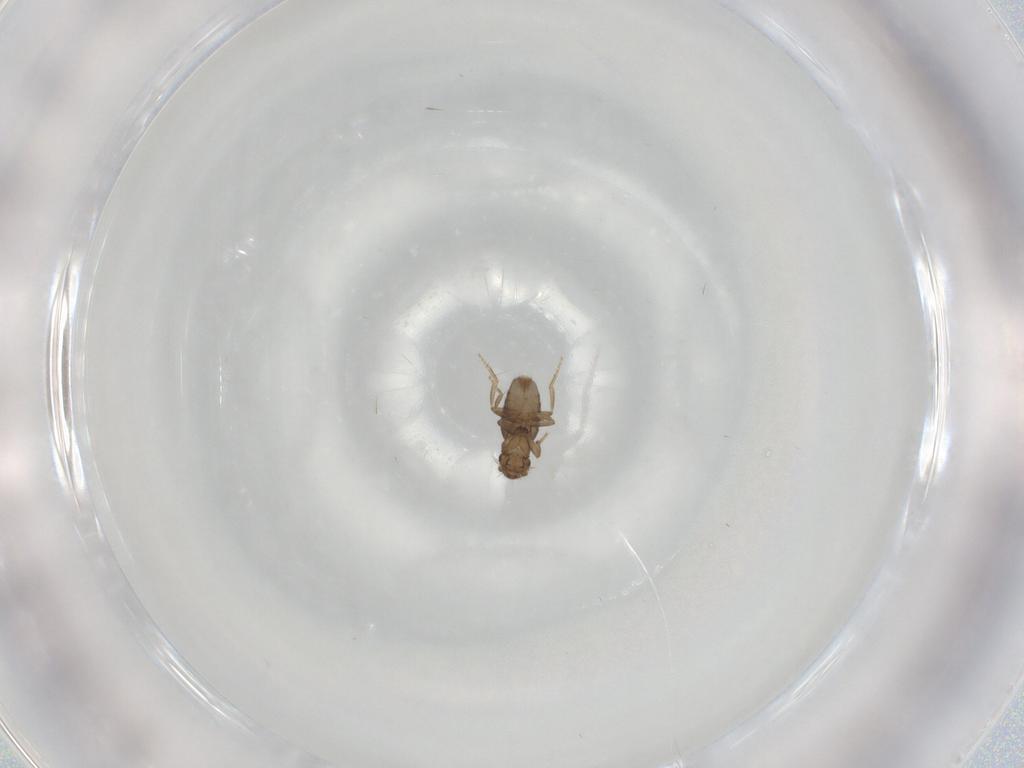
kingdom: Animalia
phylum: Arthropoda
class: Insecta
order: Diptera
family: Sciaridae
